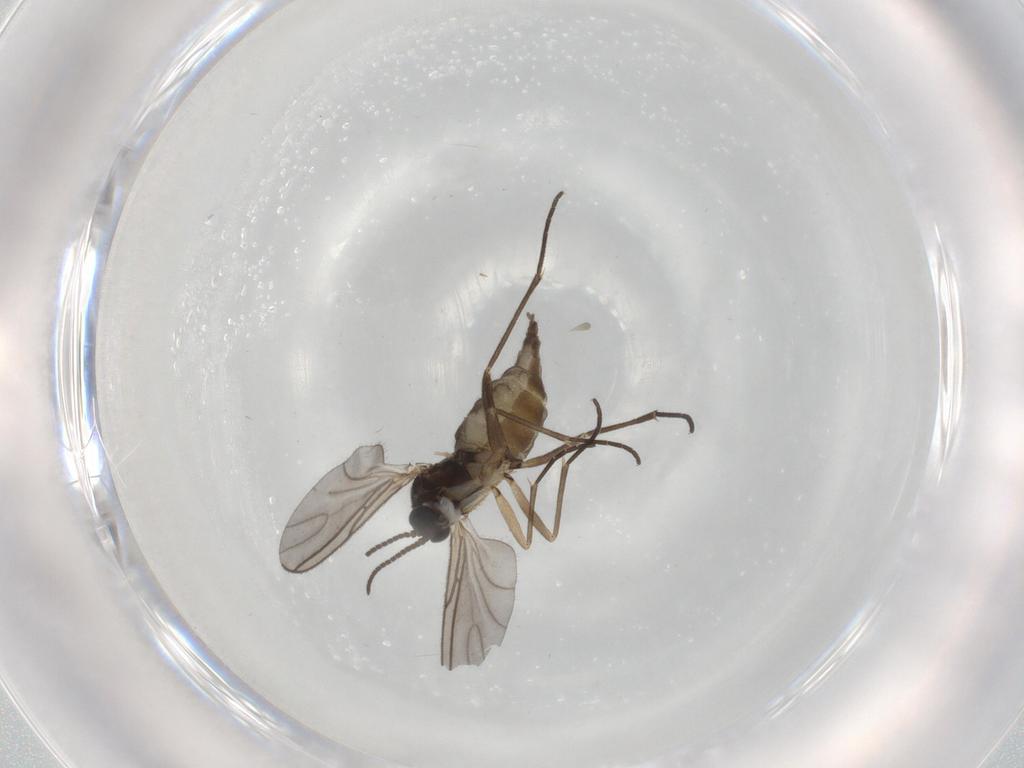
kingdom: Animalia
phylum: Arthropoda
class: Insecta
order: Diptera
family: Sciaridae
